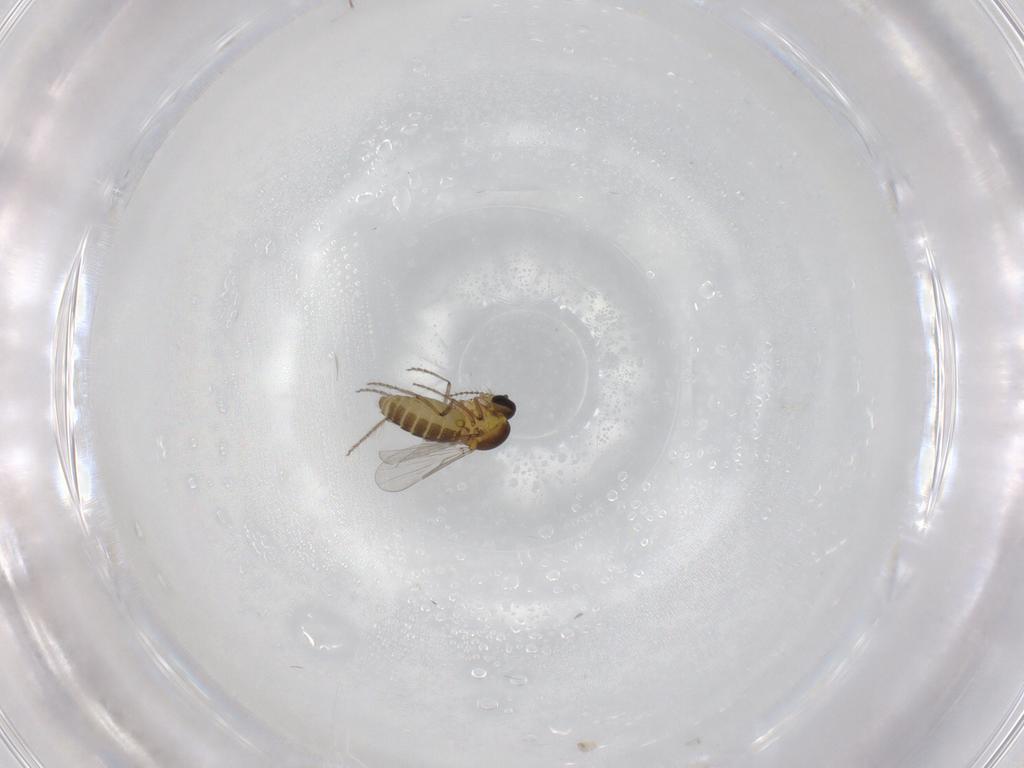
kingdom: Animalia
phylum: Arthropoda
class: Insecta
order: Diptera
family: Ceratopogonidae
